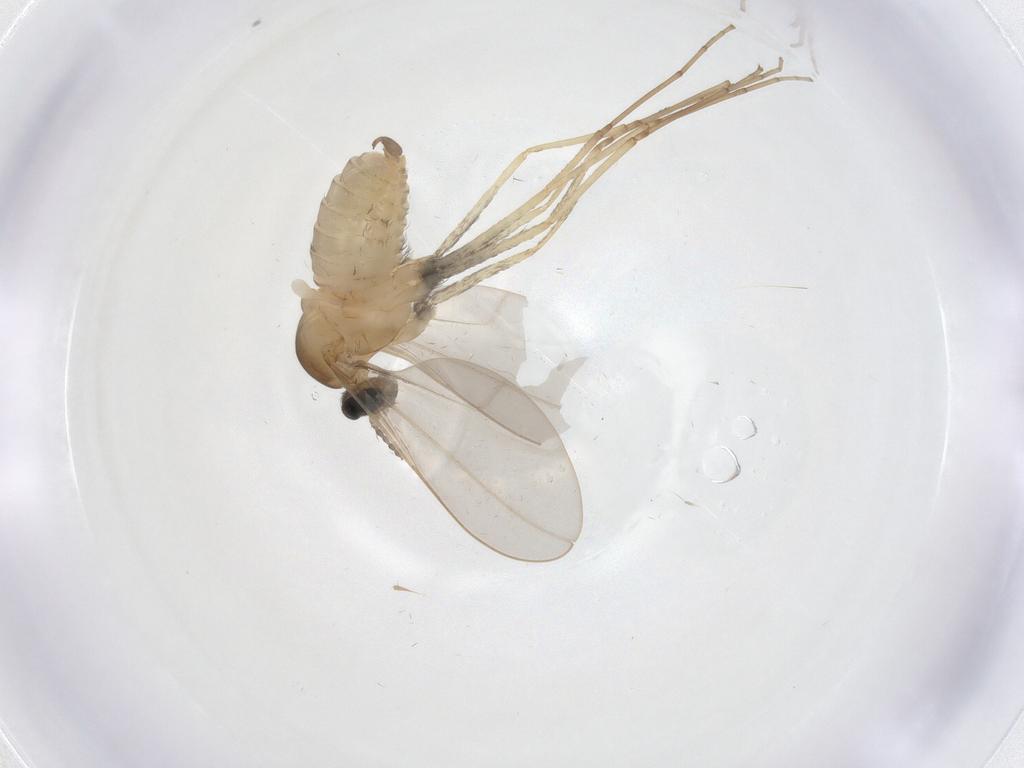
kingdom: Animalia
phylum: Arthropoda
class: Insecta
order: Diptera
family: Cecidomyiidae
